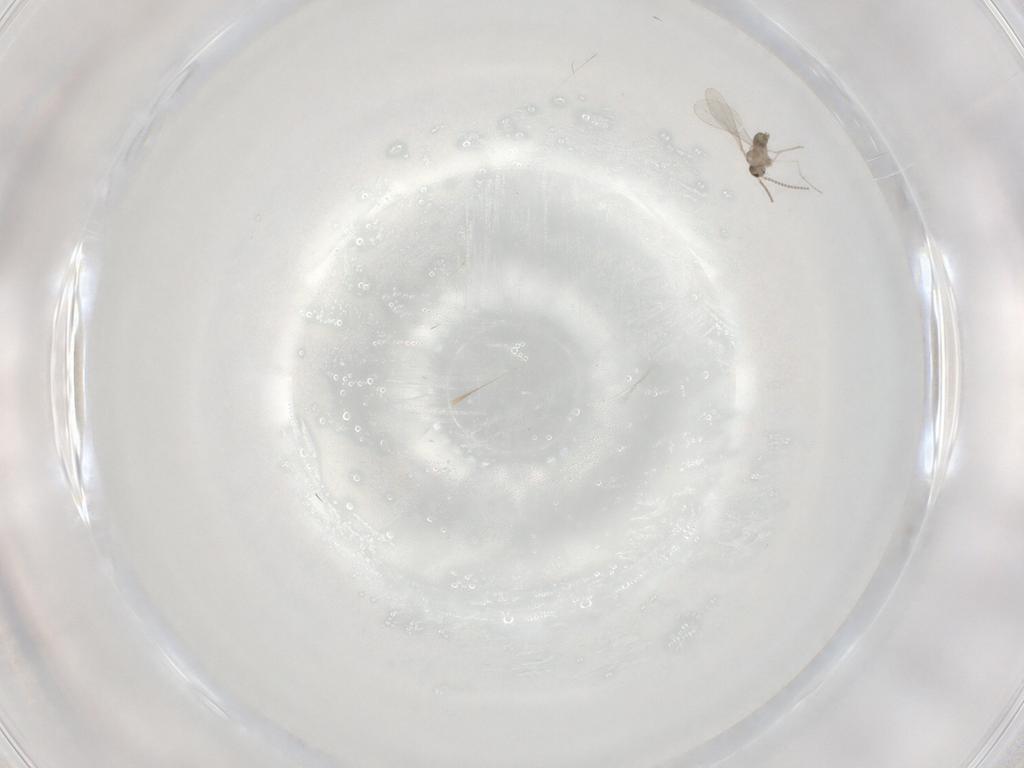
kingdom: Animalia
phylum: Arthropoda
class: Insecta
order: Diptera
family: Cecidomyiidae
